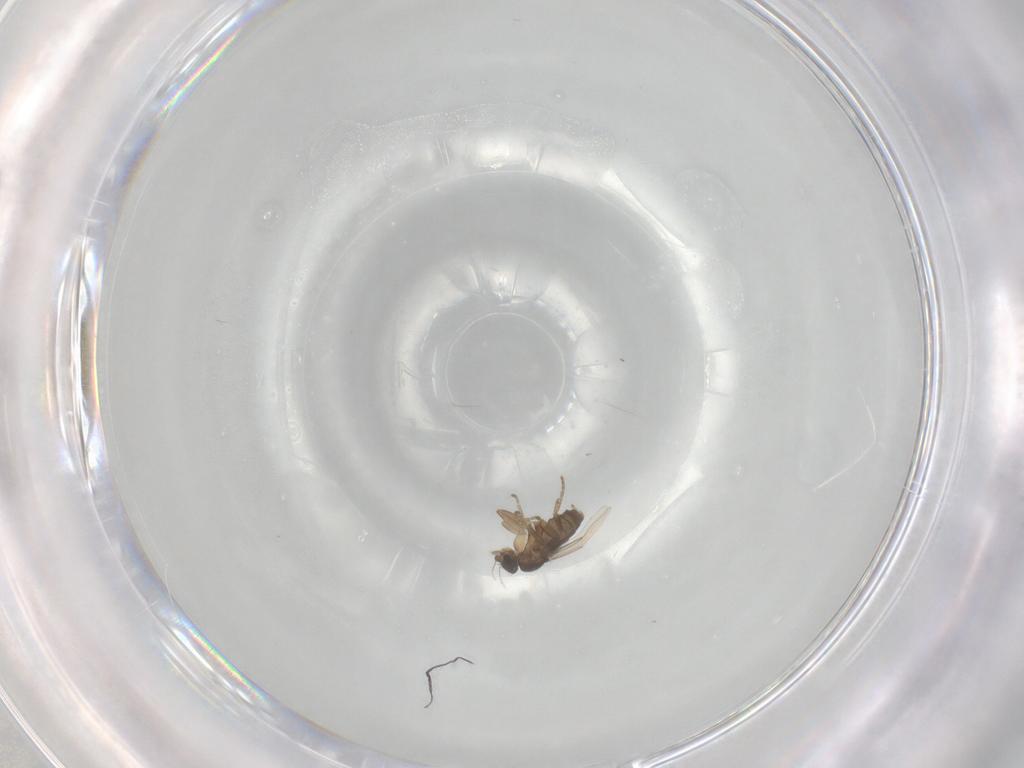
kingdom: Animalia
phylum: Arthropoda
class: Insecta
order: Diptera
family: Phoridae
